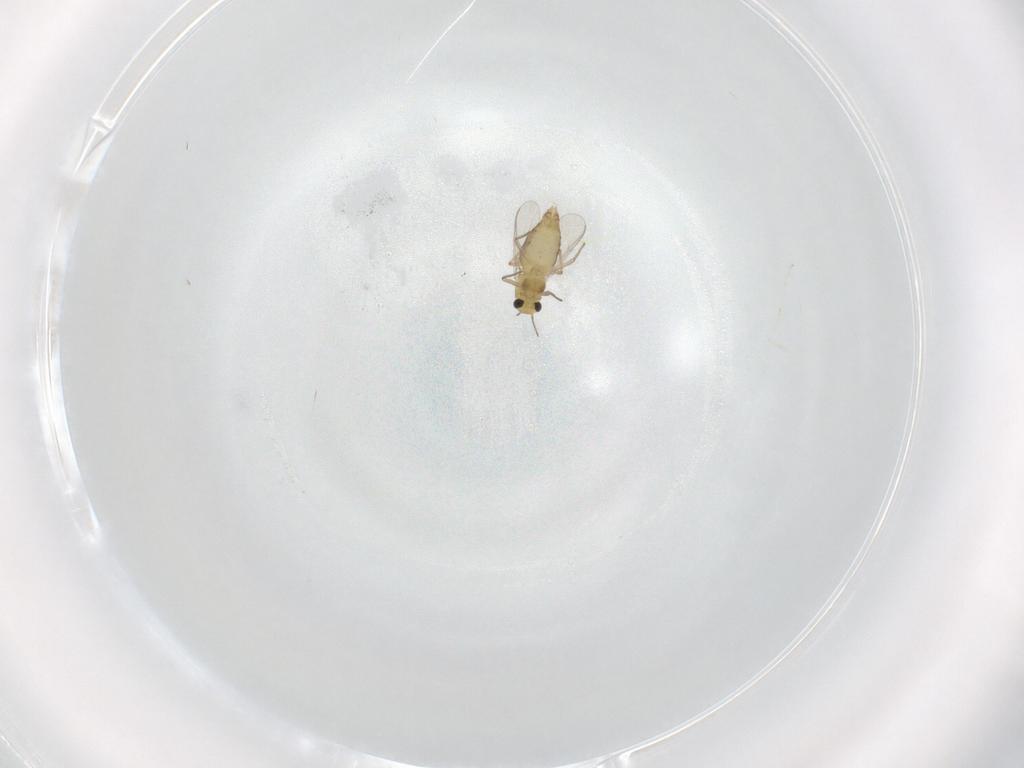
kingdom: Animalia
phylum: Arthropoda
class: Insecta
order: Diptera
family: Chironomidae
